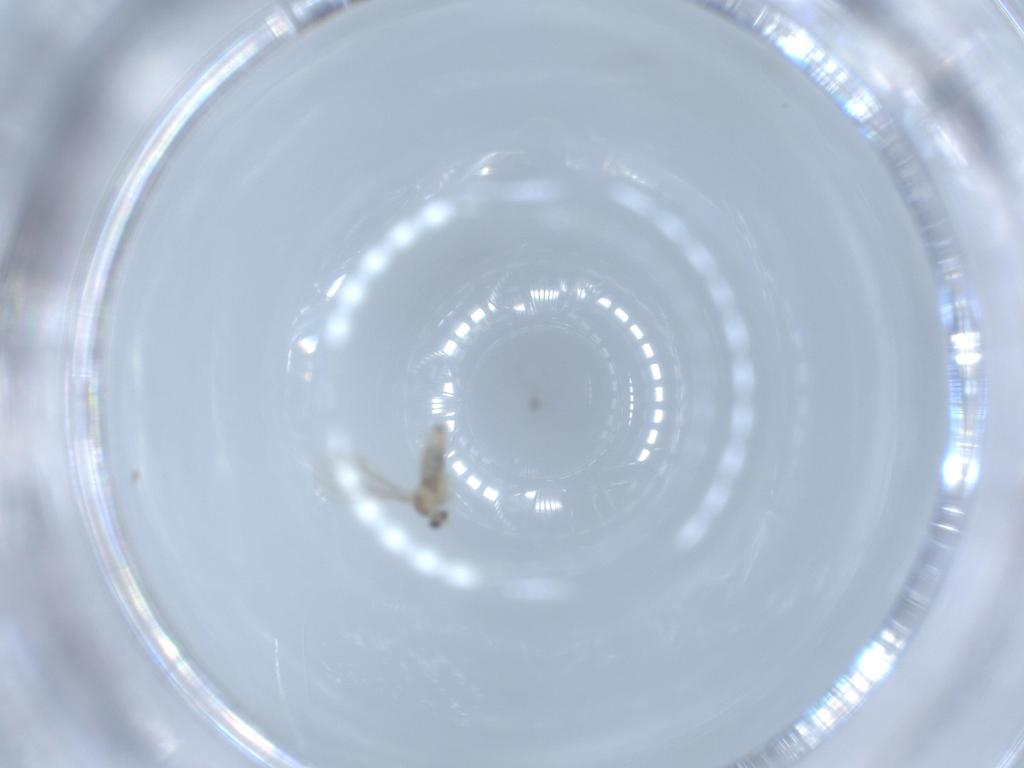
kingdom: Animalia
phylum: Arthropoda
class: Insecta
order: Diptera
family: Cecidomyiidae
